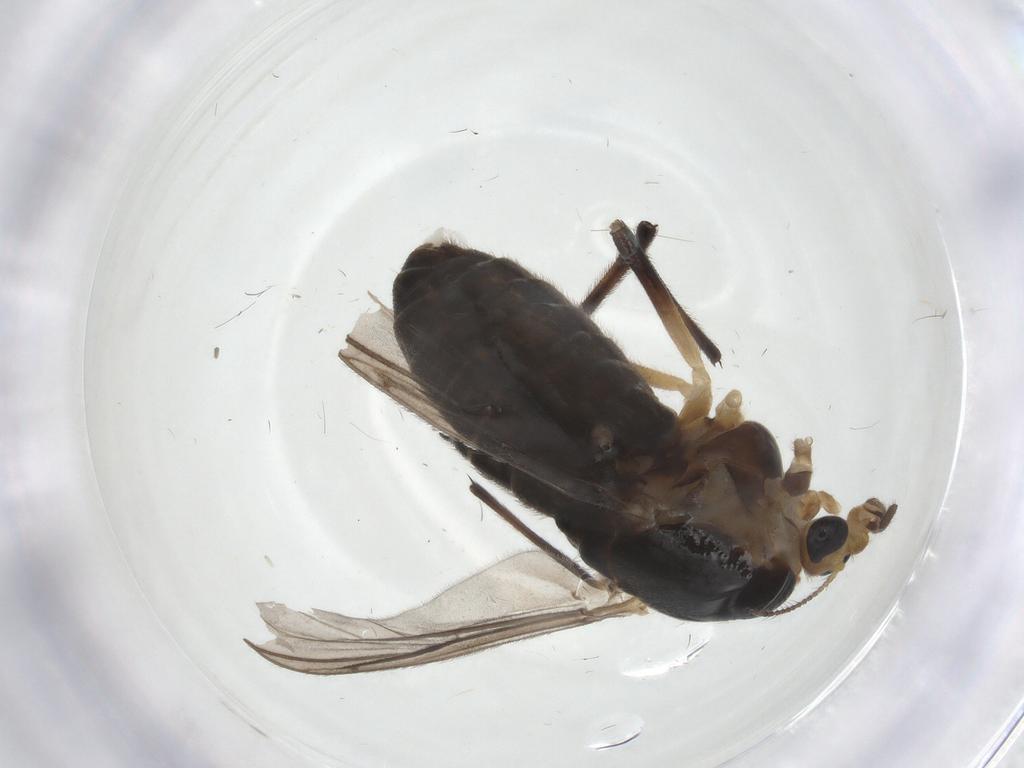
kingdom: Animalia
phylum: Arthropoda
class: Insecta
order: Diptera
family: Chironomidae
